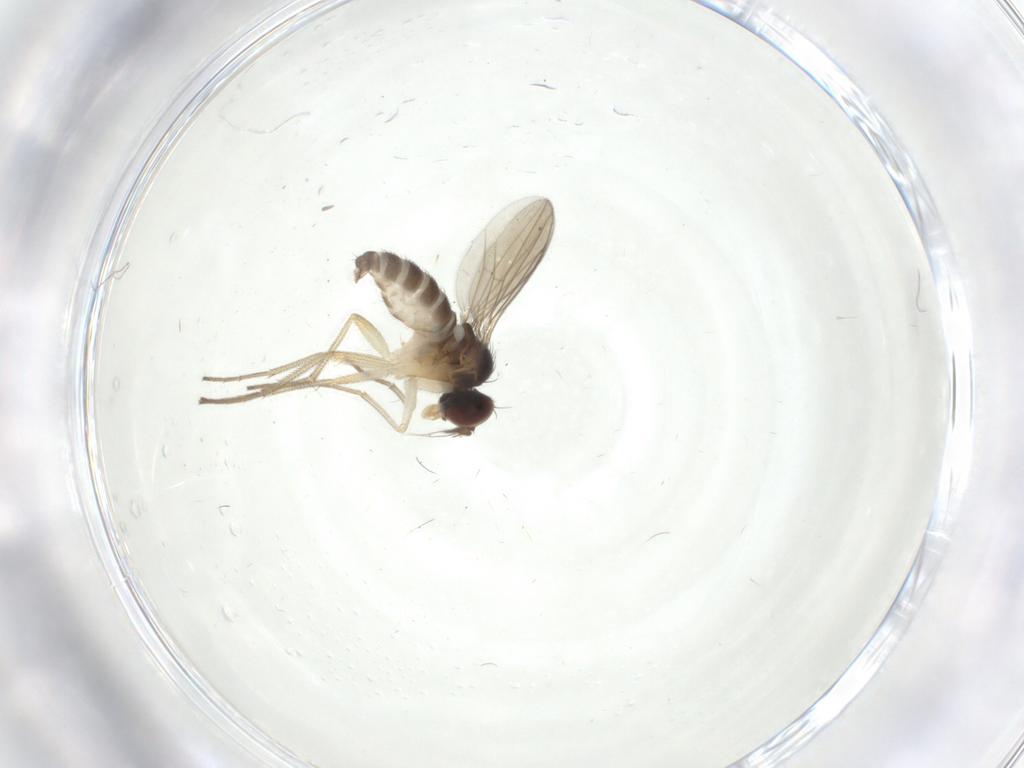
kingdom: Animalia
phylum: Arthropoda
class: Insecta
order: Diptera
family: Dolichopodidae
